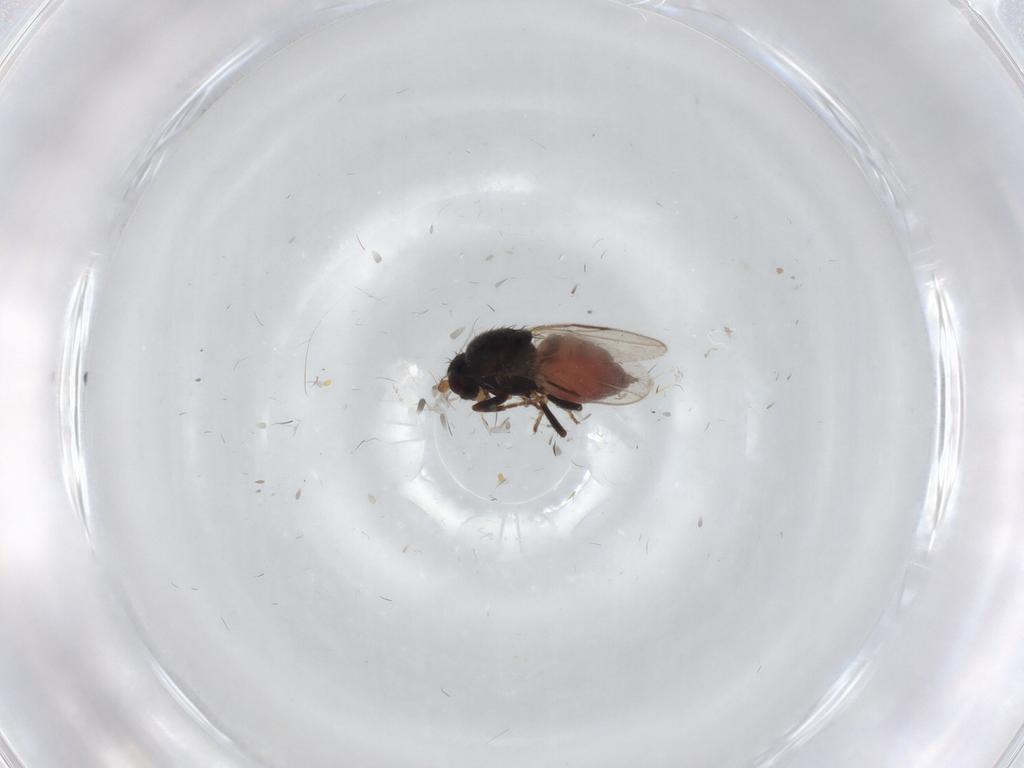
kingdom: Animalia
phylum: Arthropoda
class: Insecta
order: Diptera
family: Sphaeroceridae
